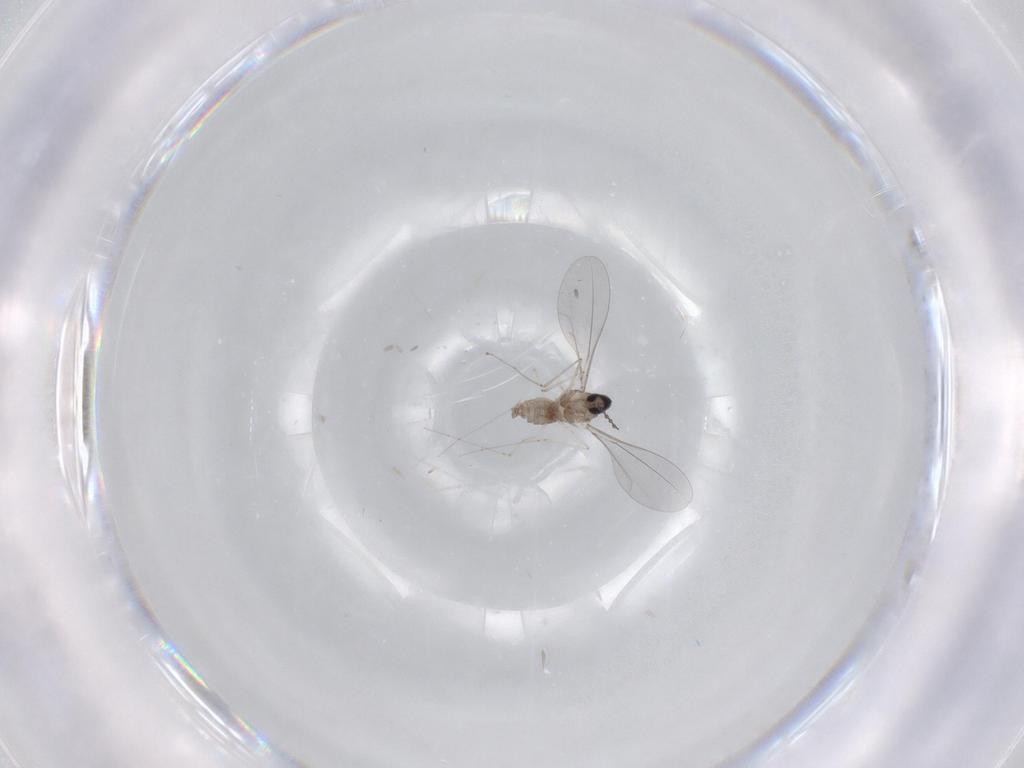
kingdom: Animalia
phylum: Arthropoda
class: Insecta
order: Diptera
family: Cecidomyiidae
